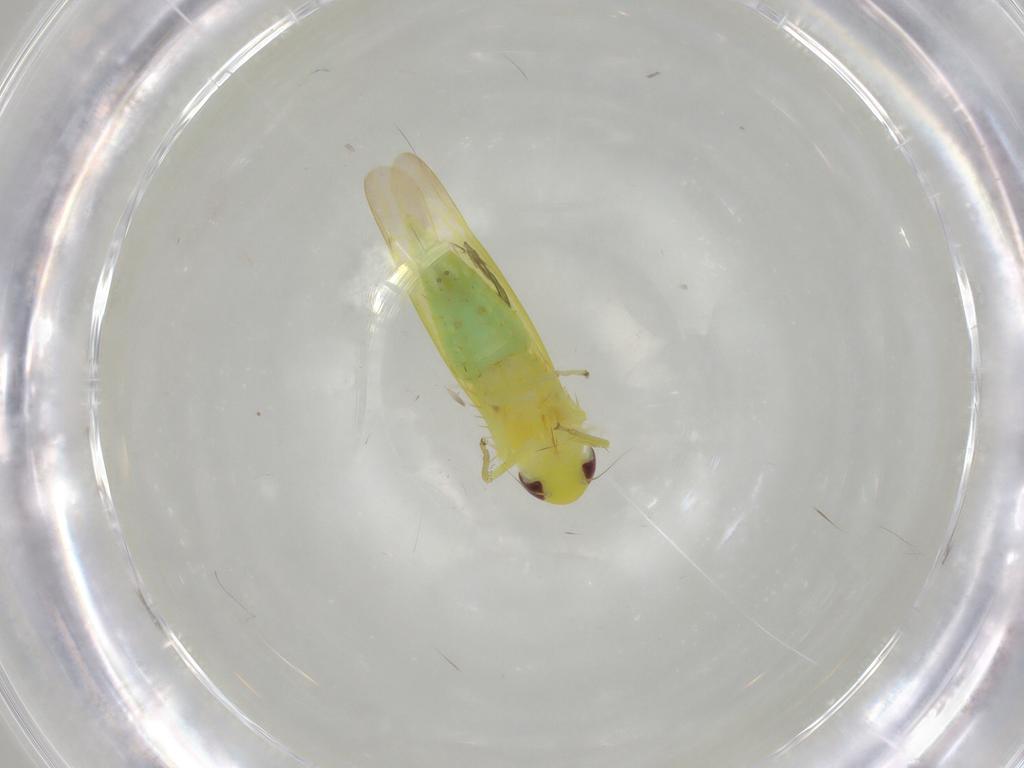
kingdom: Animalia
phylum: Arthropoda
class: Insecta
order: Hemiptera
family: Cicadellidae
